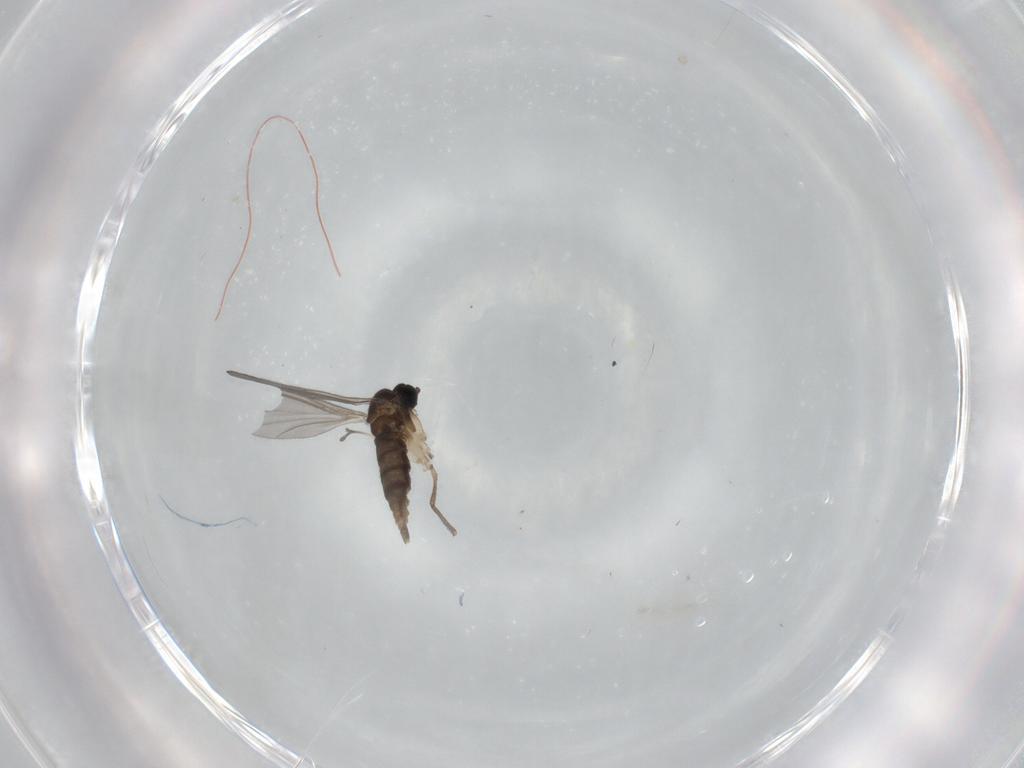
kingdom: Animalia
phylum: Arthropoda
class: Insecta
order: Diptera
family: Sciaridae
